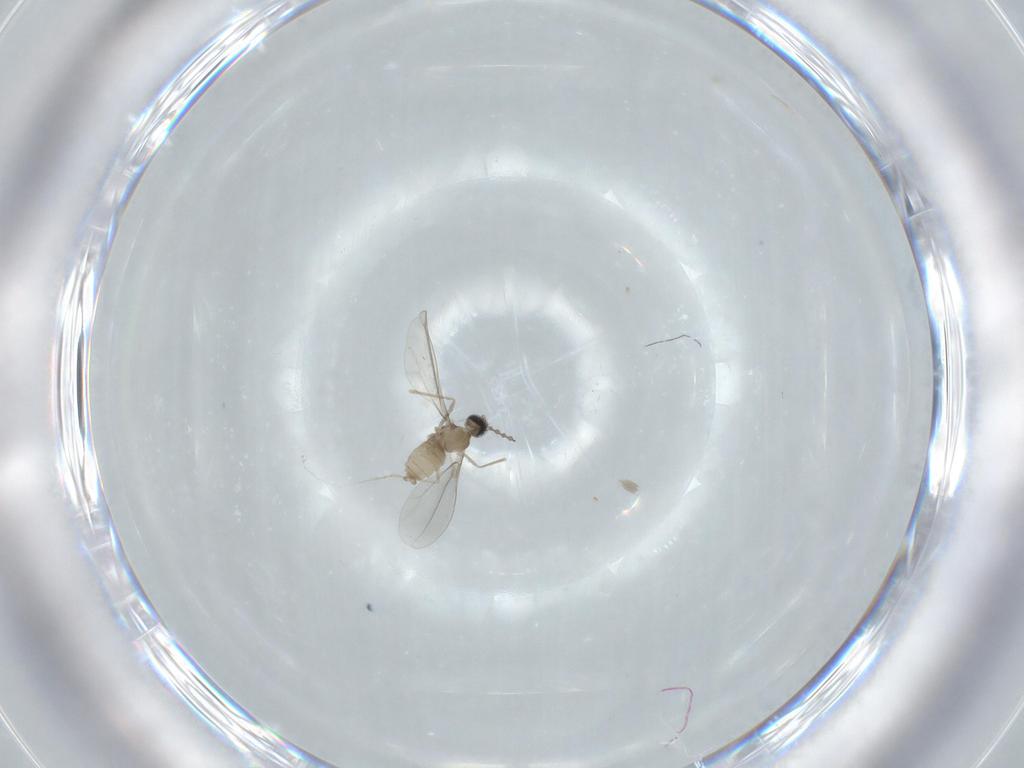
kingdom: Animalia
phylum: Arthropoda
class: Insecta
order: Diptera
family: Cecidomyiidae
